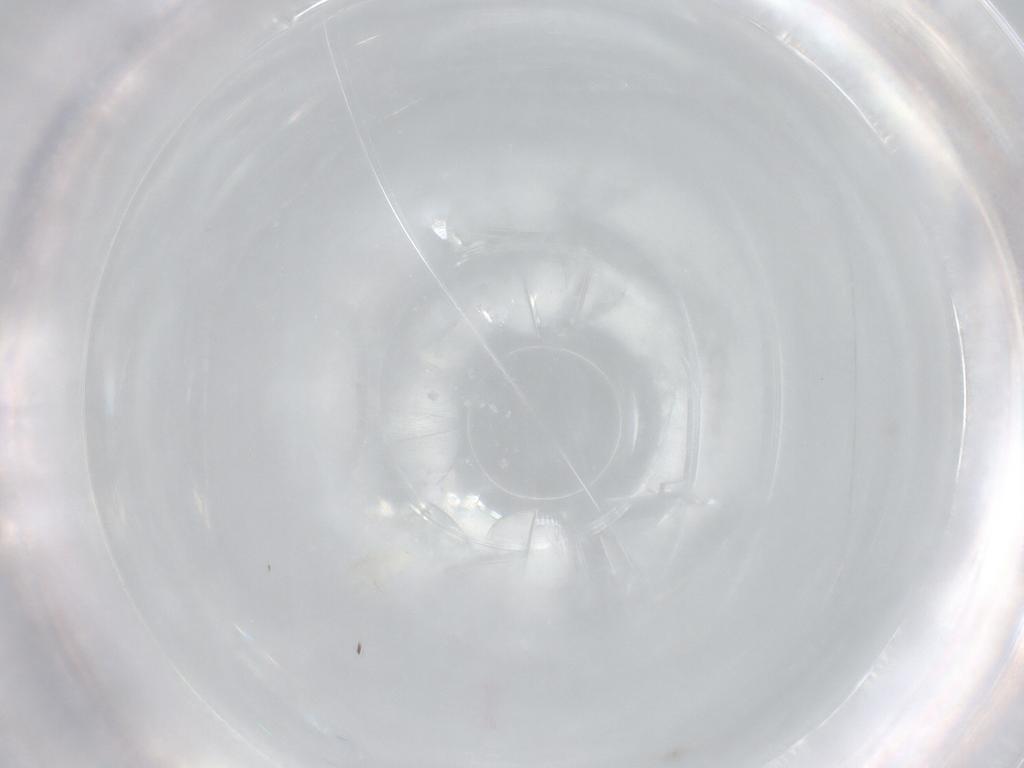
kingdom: Animalia
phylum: Arthropoda
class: Insecta
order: Diptera
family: Drosophilidae
